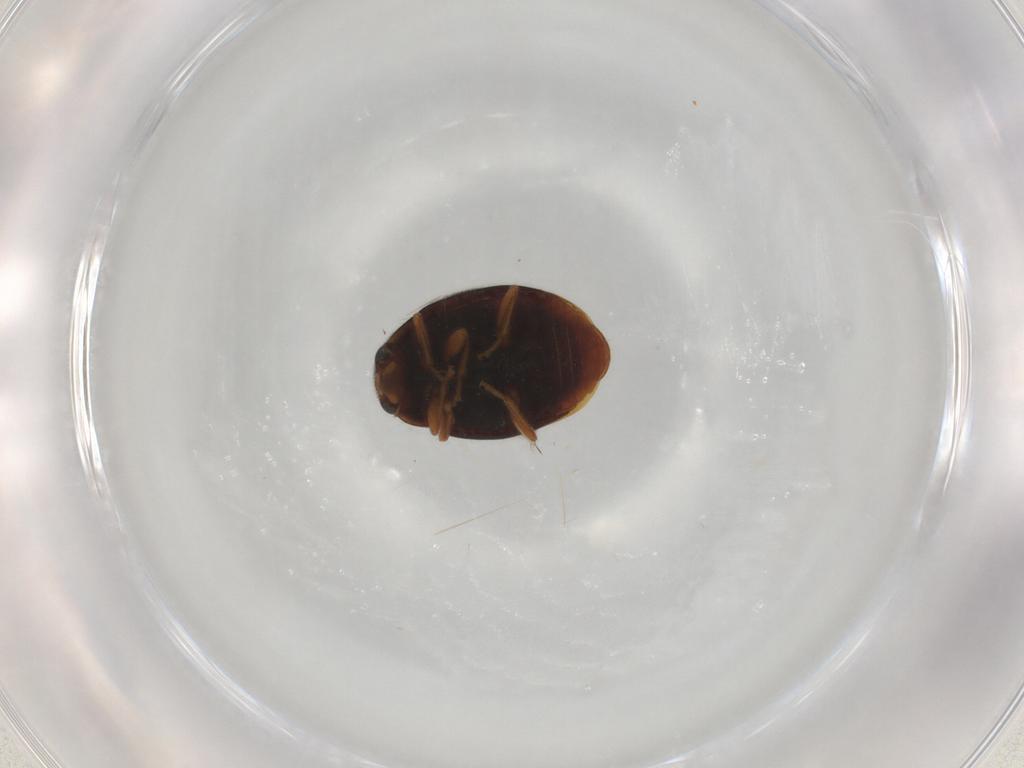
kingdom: Animalia
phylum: Arthropoda
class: Insecta
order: Coleoptera
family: Coccinellidae
